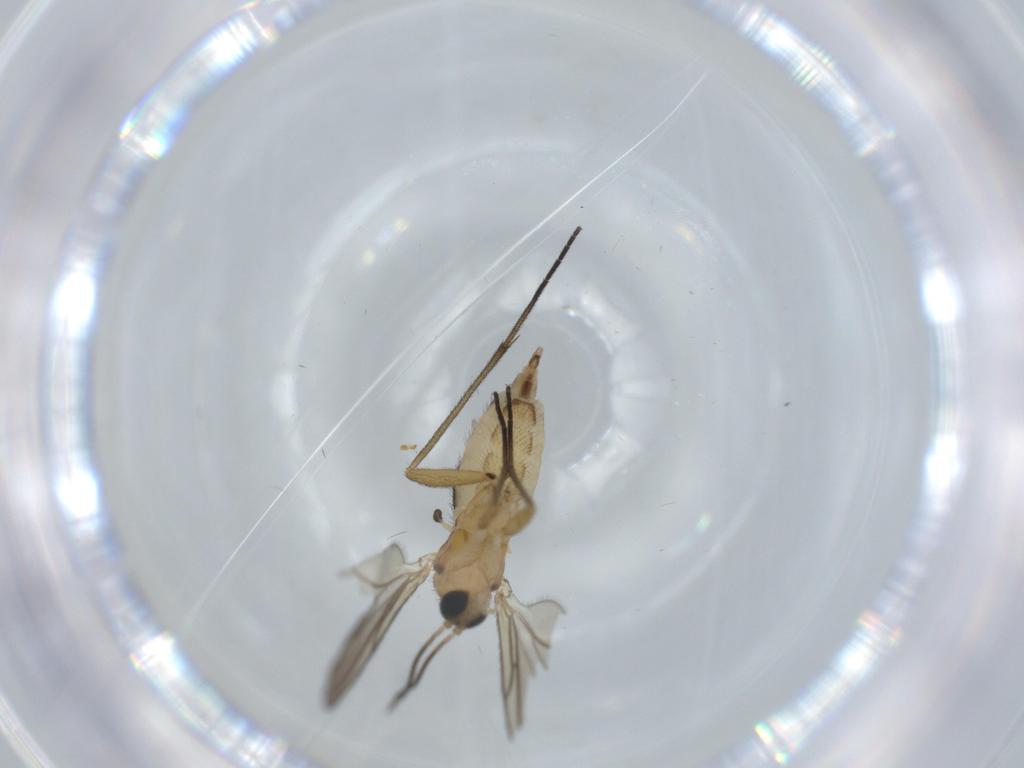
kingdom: Animalia
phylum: Arthropoda
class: Insecta
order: Diptera
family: Sciaridae
